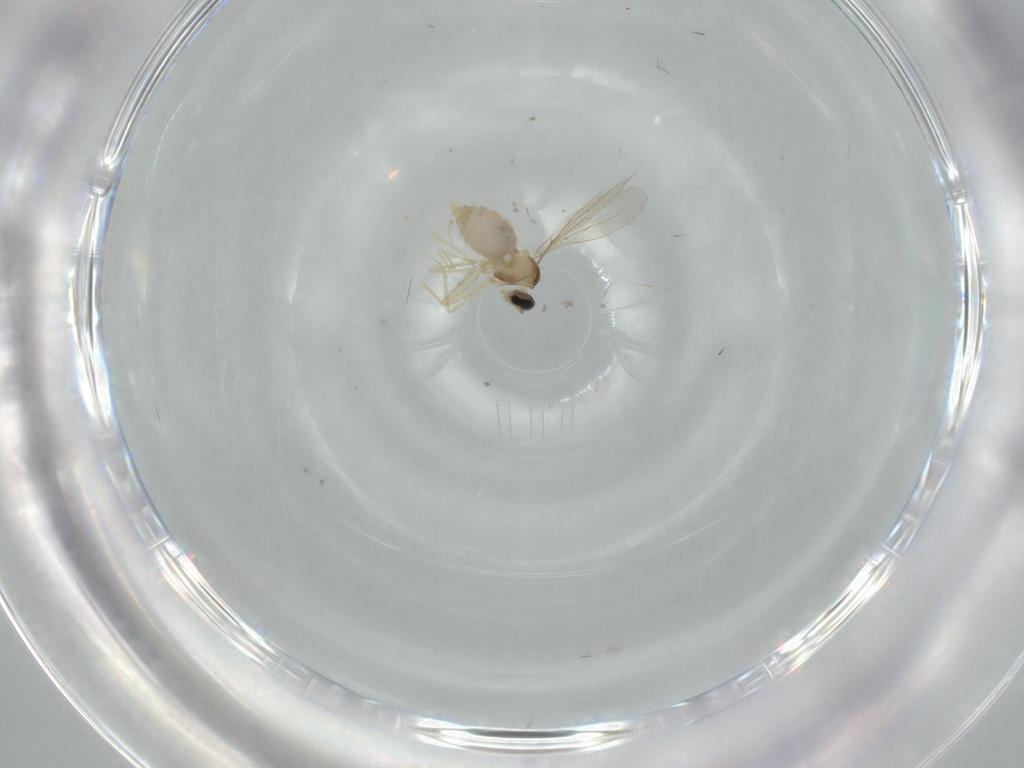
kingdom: Animalia
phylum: Arthropoda
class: Insecta
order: Diptera
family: Cecidomyiidae
